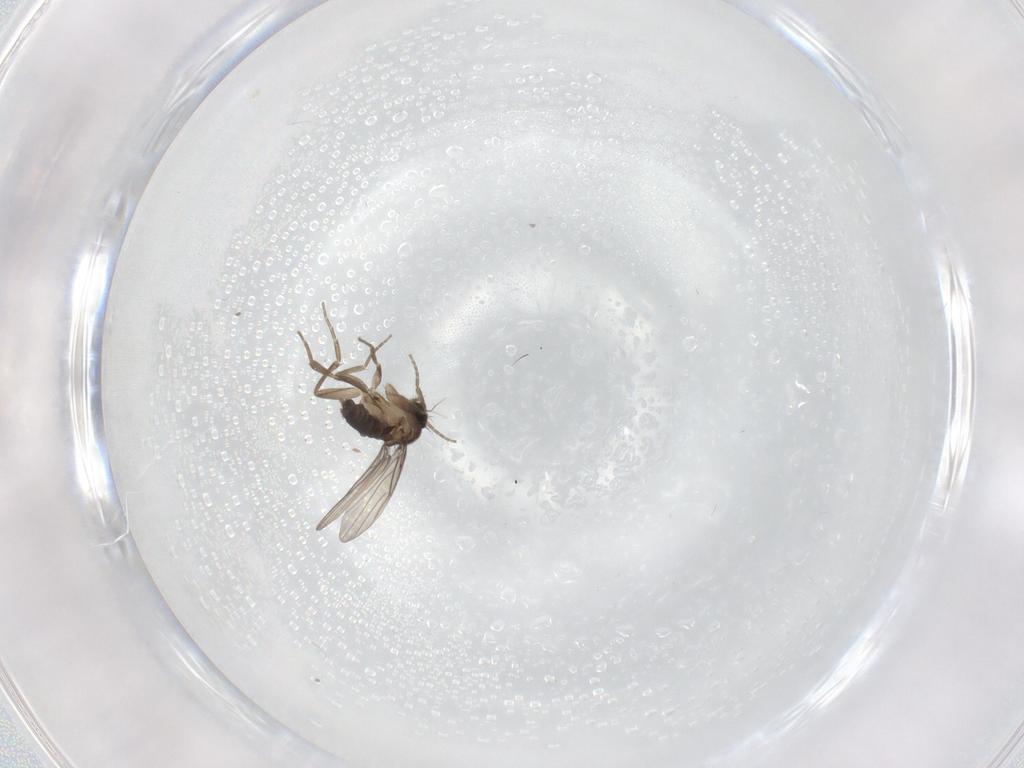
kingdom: Animalia
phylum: Arthropoda
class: Insecta
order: Diptera
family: Phoridae
